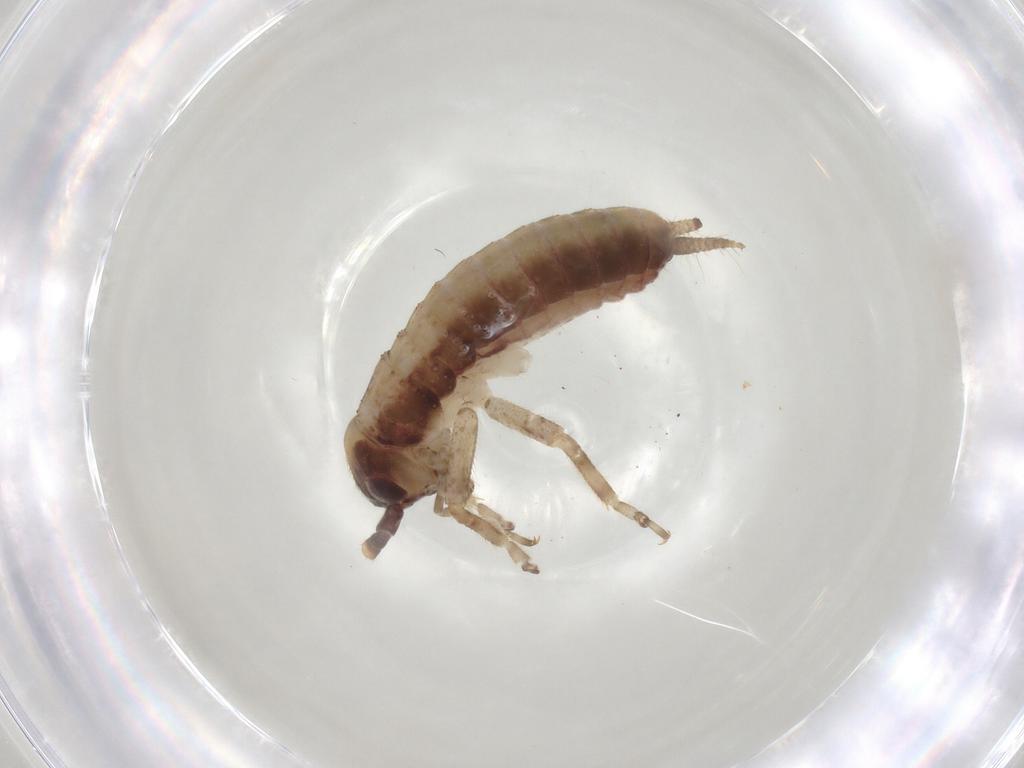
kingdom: Animalia
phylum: Arthropoda
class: Insecta
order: Orthoptera
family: Gryllidae
